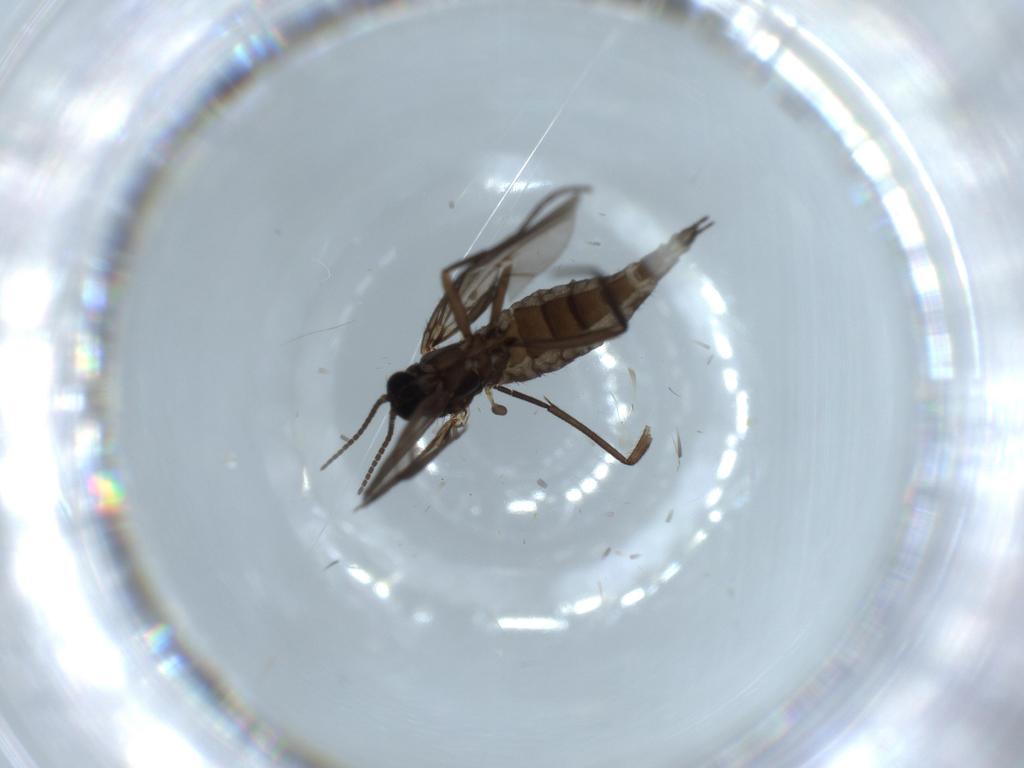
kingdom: Animalia
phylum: Arthropoda
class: Insecta
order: Diptera
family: Sciaridae
